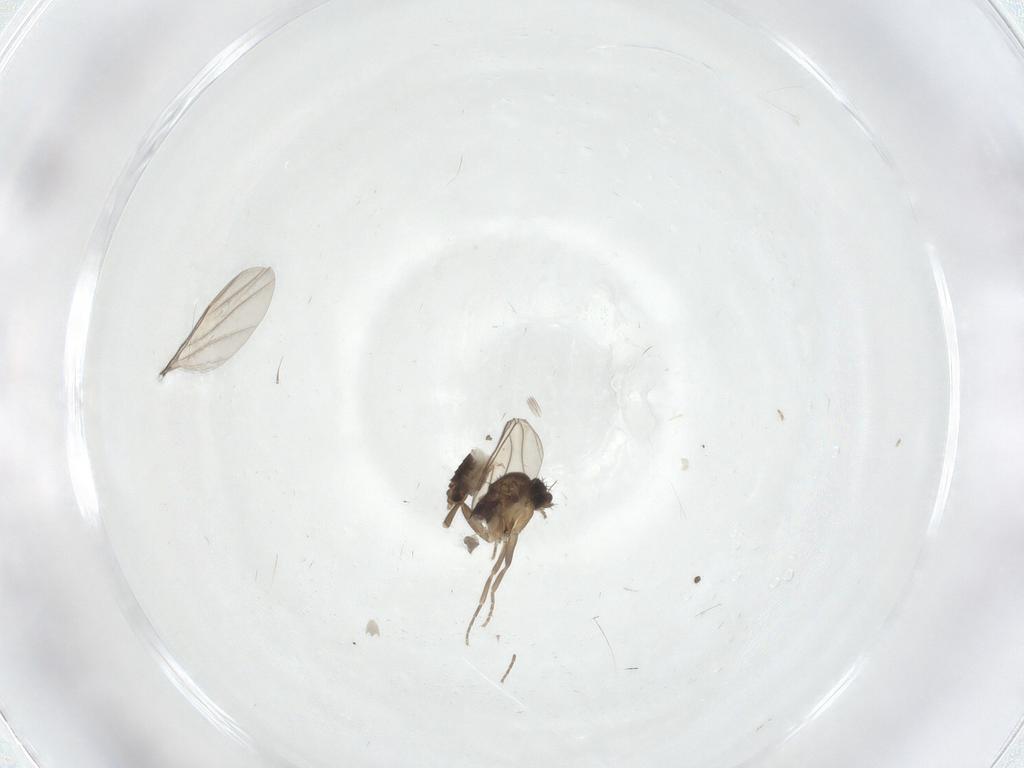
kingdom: Animalia
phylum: Arthropoda
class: Insecta
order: Diptera
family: Phoridae
